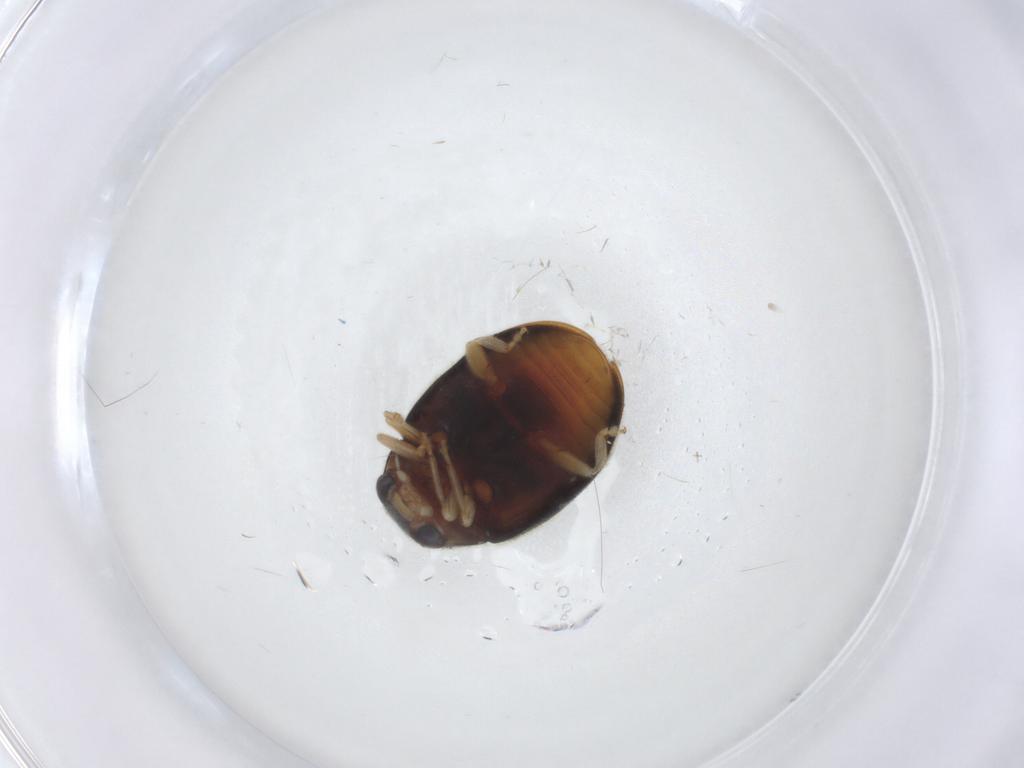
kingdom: Animalia
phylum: Arthropoda
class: Insecta
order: Coleoptera
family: Coccinellidae
